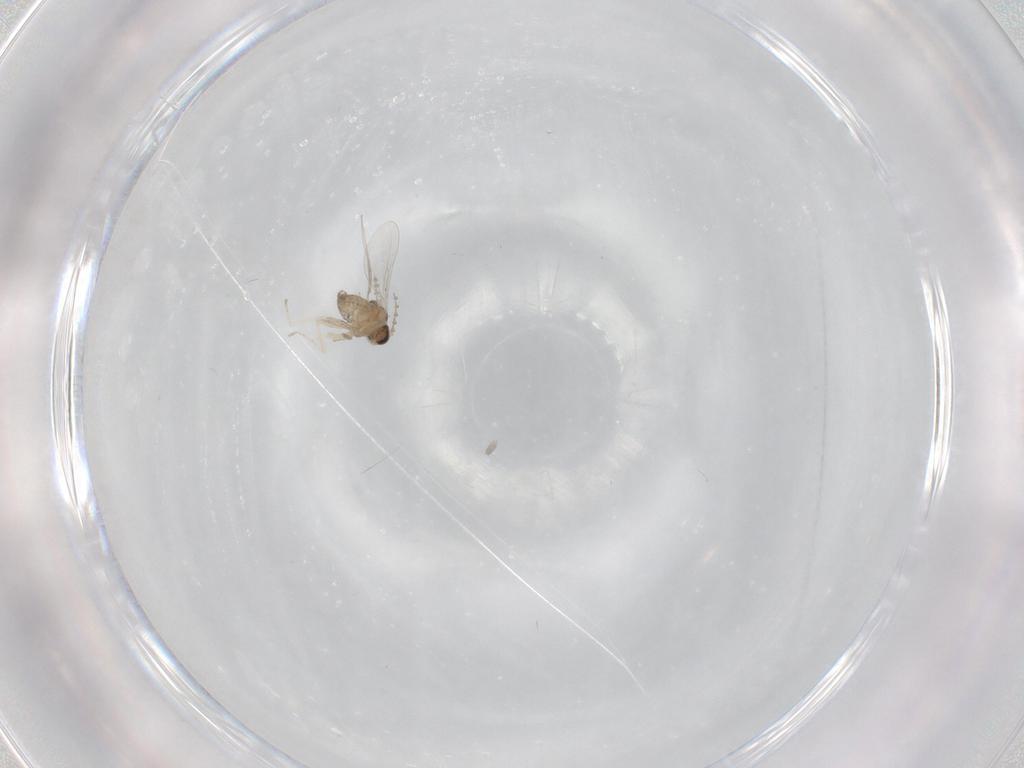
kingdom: Animalia
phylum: Arthropoda
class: Insecta
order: Diptera
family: Cecidomyiidae
